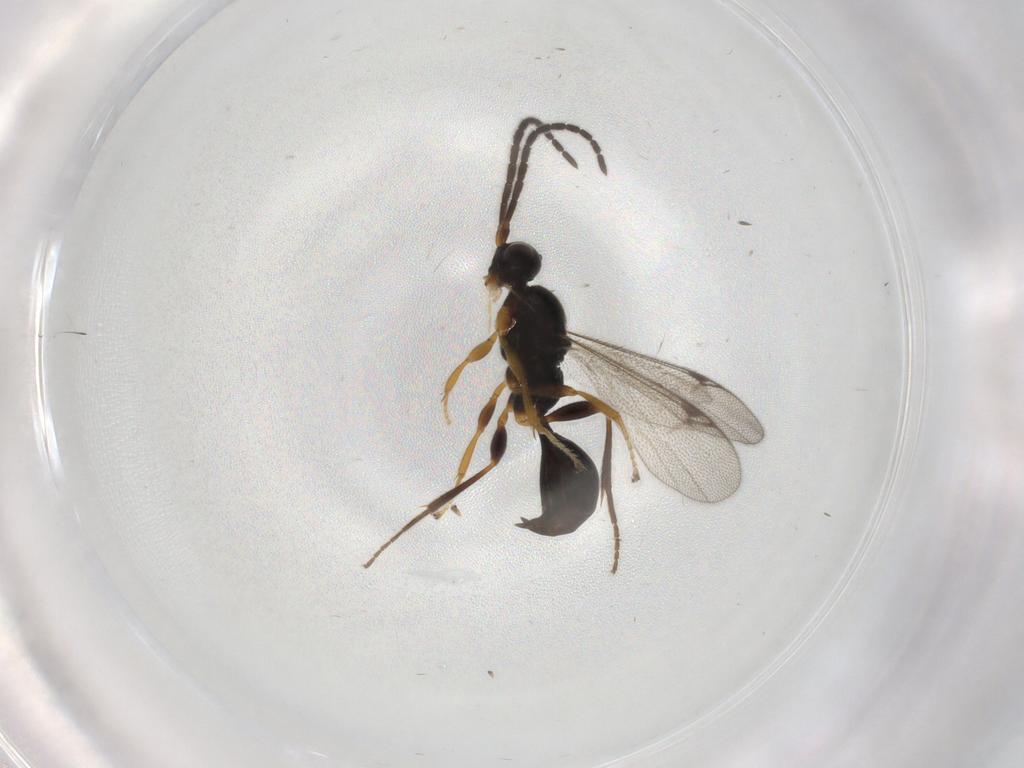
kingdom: Animalia
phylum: Arthropoda
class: Insecta
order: Hymenoptera
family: Proctotrupidae
